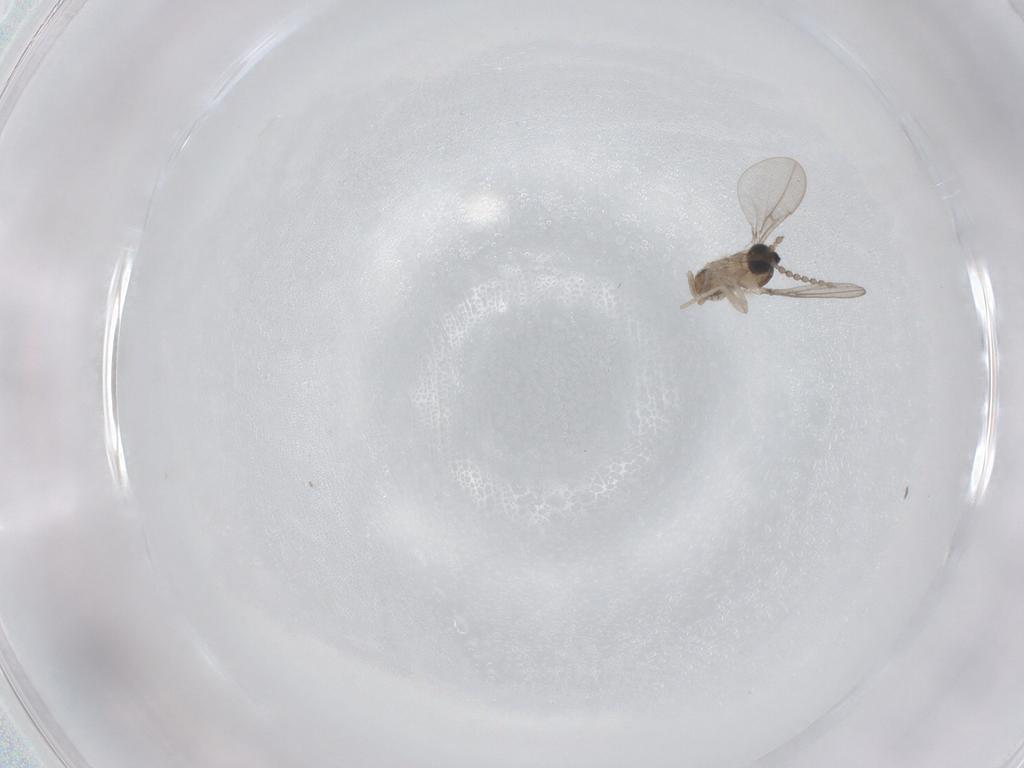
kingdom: Animalia
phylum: Arthropoda
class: Insecta
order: Diptera
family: Cecidomyiidae
